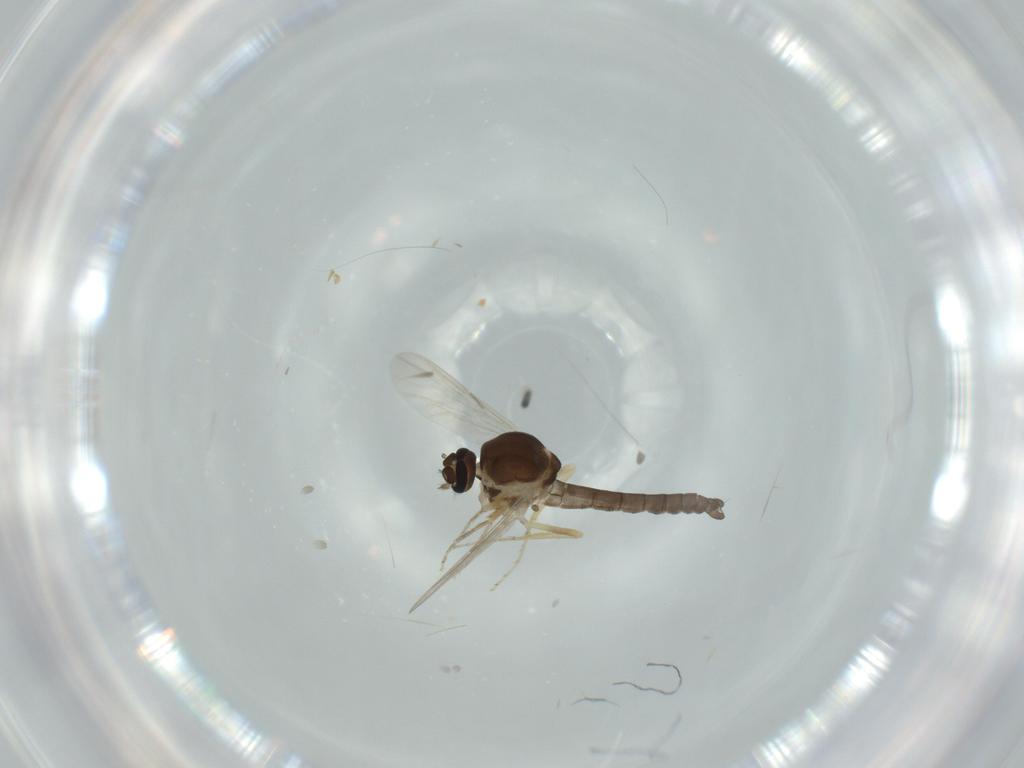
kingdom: Animalia
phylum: Arthropoda
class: Insecta
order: Diptera
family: Ceratopogonidae
